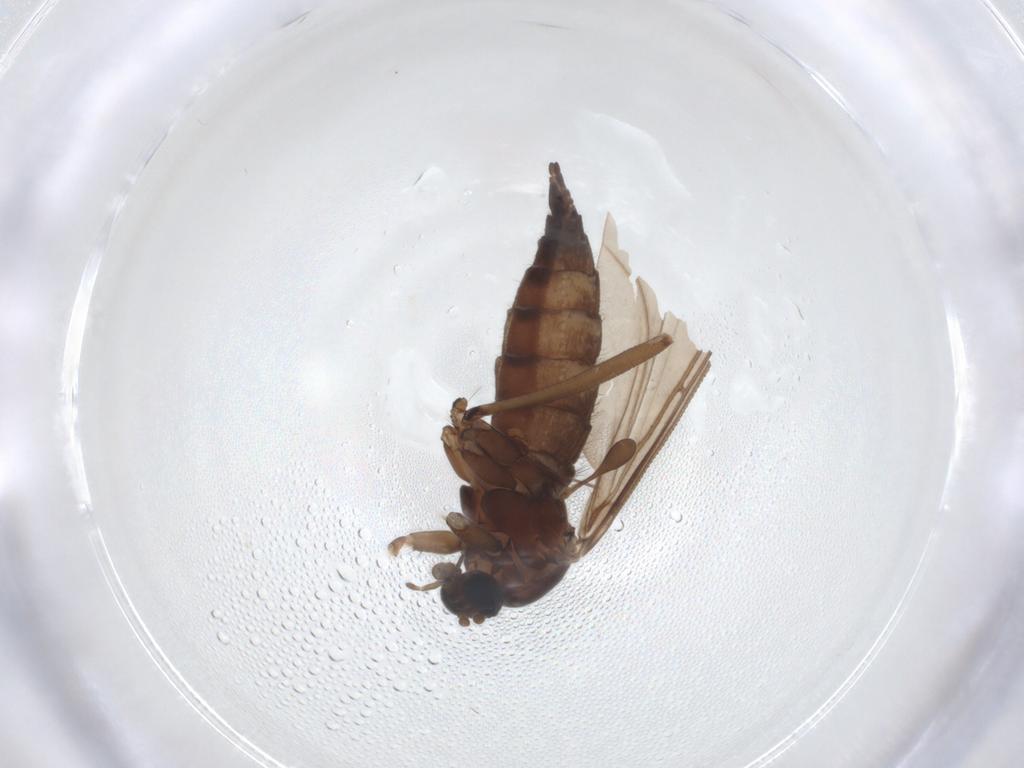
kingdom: Animalia
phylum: Arthropoda
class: Insecta
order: Diptera
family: Sciaridae
